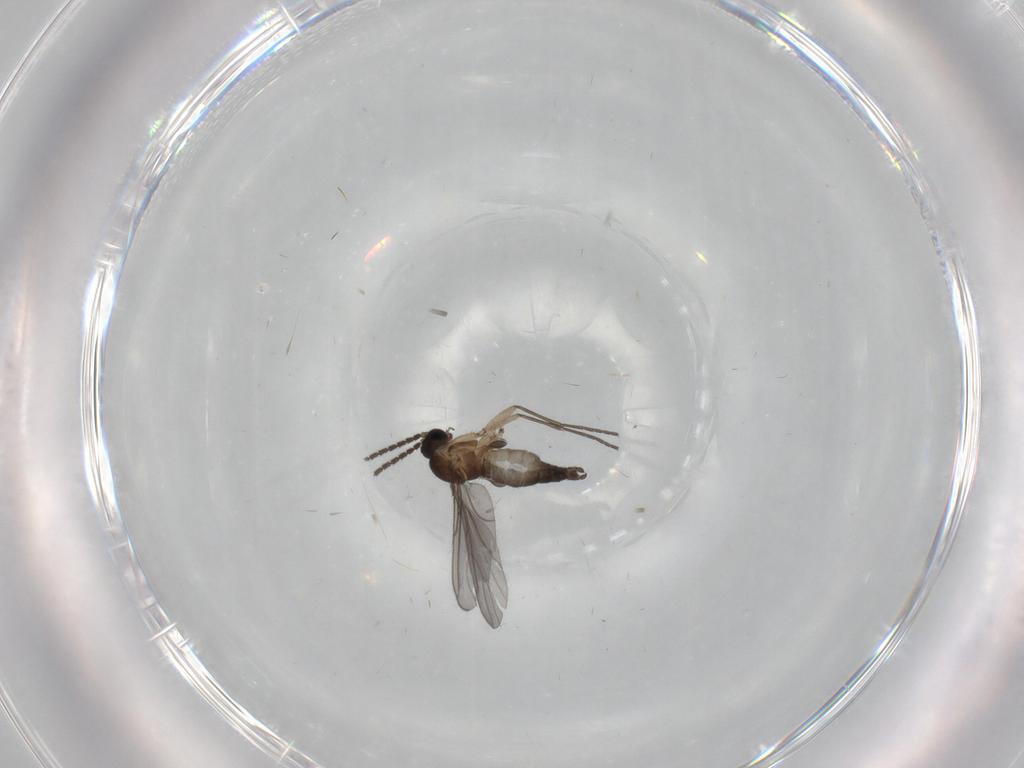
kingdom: Animalia
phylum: Arthropoda
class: Insecta
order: Diptera
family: Sciaridae
